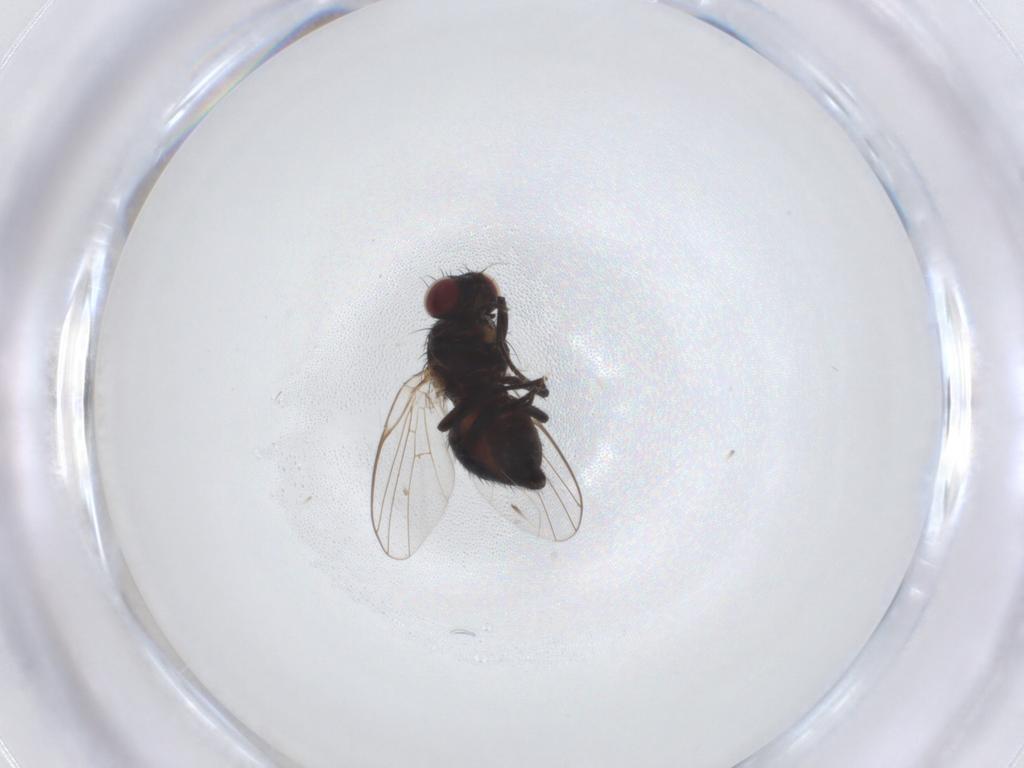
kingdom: Animalia
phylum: Arthropoda
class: Insecta
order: Diptera
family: Agromyzidae
